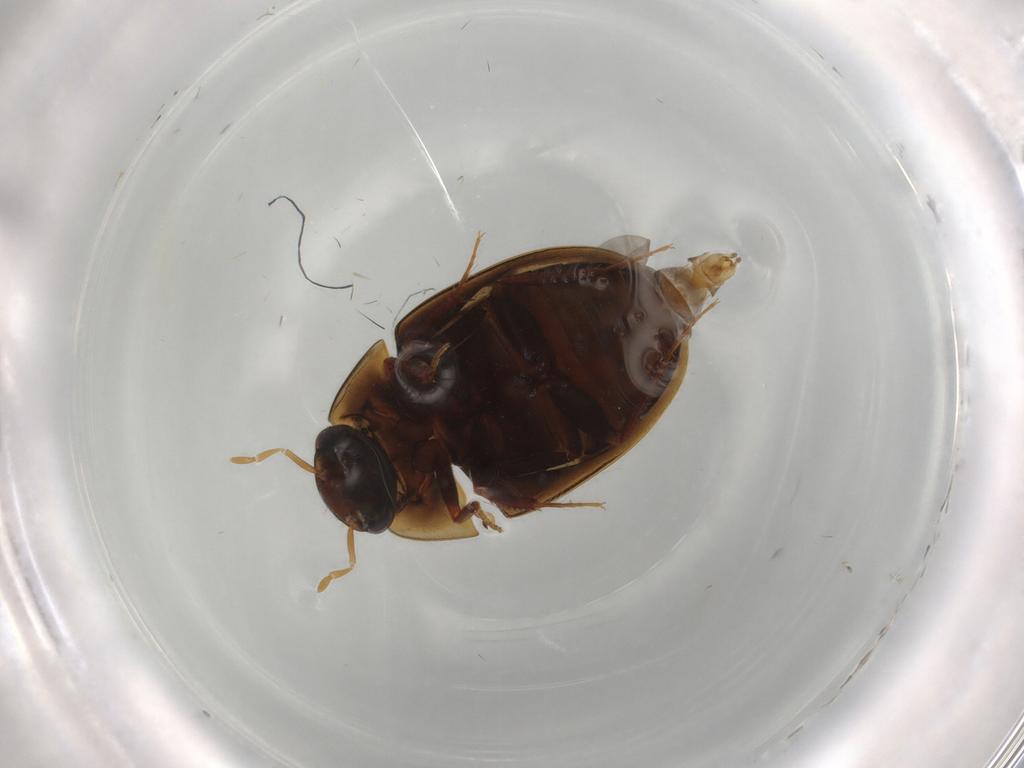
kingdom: Animalia
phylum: Arthropoda
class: Insecta
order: Coleoptera
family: Hydrophilidae
